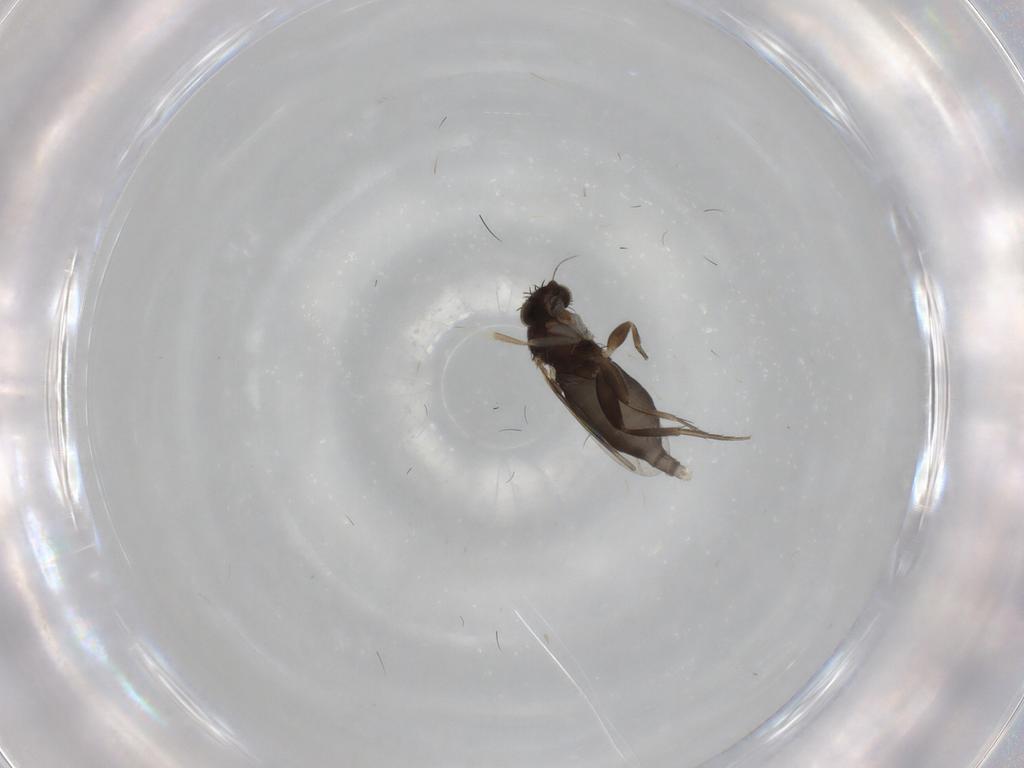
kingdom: Animalia
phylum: Arthropoda
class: Insecta
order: Diptera
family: Phoridae
